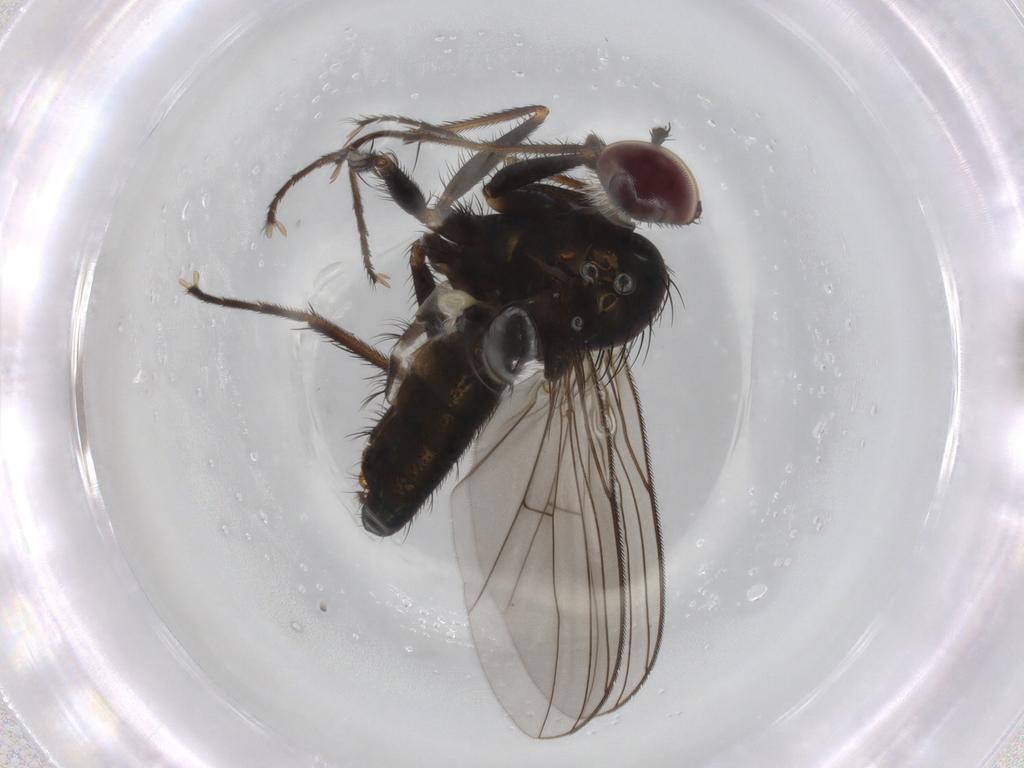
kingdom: Animalia
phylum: Arthropoda
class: Insecta
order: Diptera
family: Dolichopodidae
